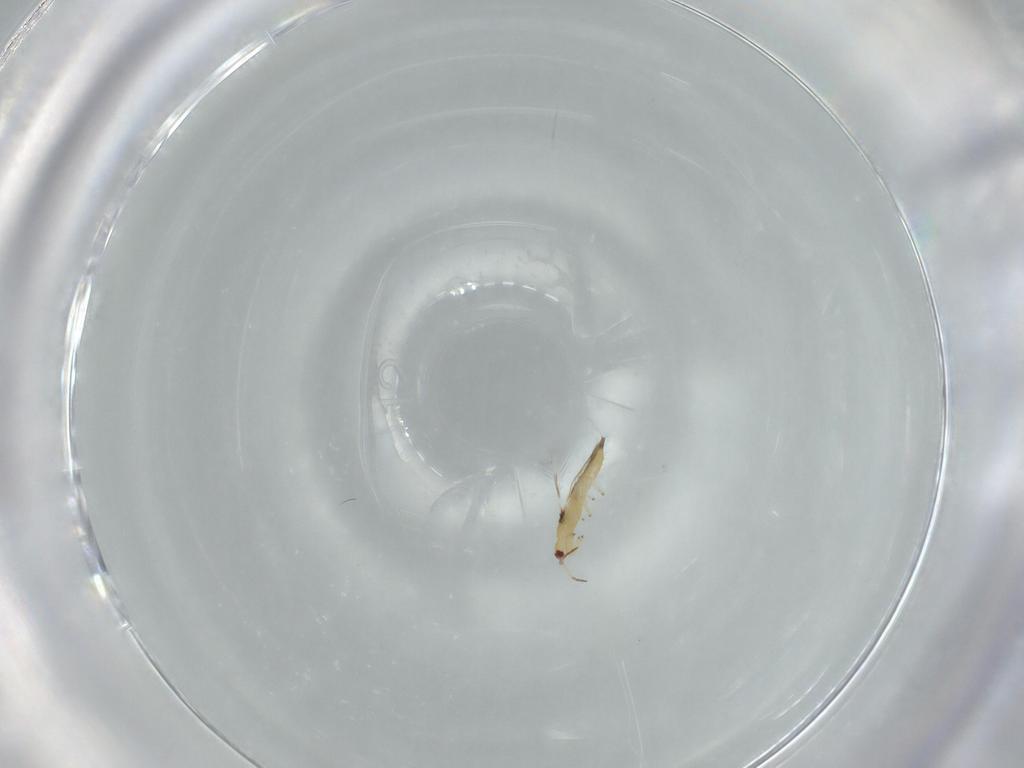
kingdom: Animalia
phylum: Arthropoda
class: Insecta
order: Thysanoptera
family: Phlaeothripidae
